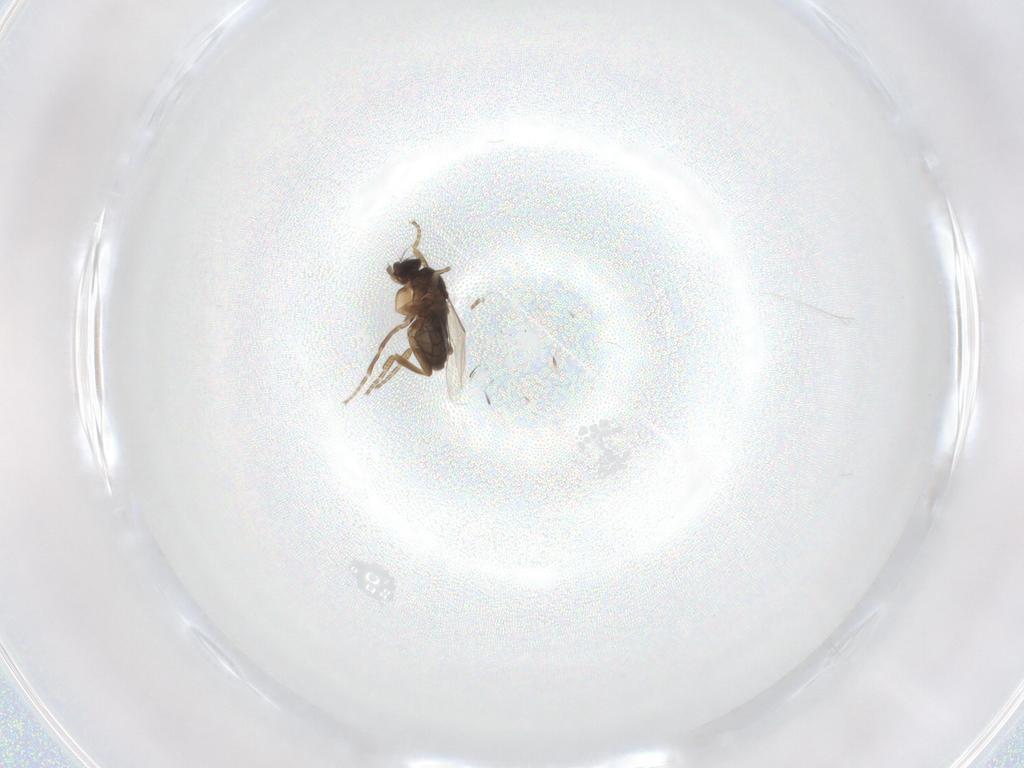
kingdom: Animalia
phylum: Arthropoda
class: Insecta
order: Diptera
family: Phoridae
